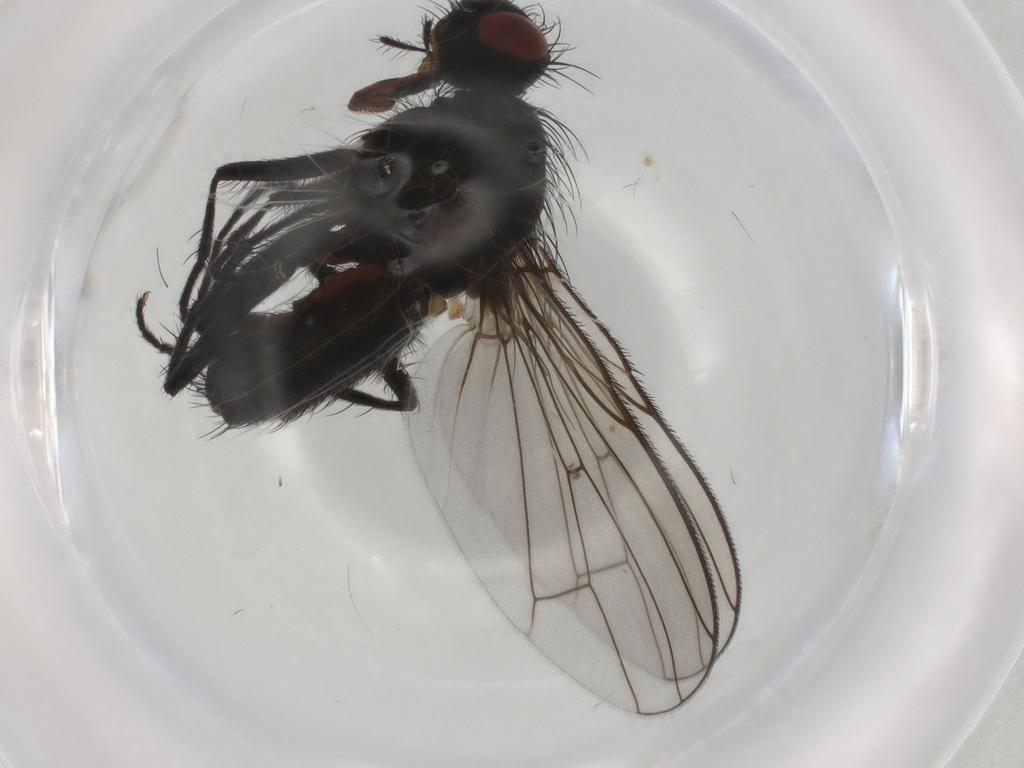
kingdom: Animalia
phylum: Arthropoda
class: Insecta
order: Diptera
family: Anthomyiidae
